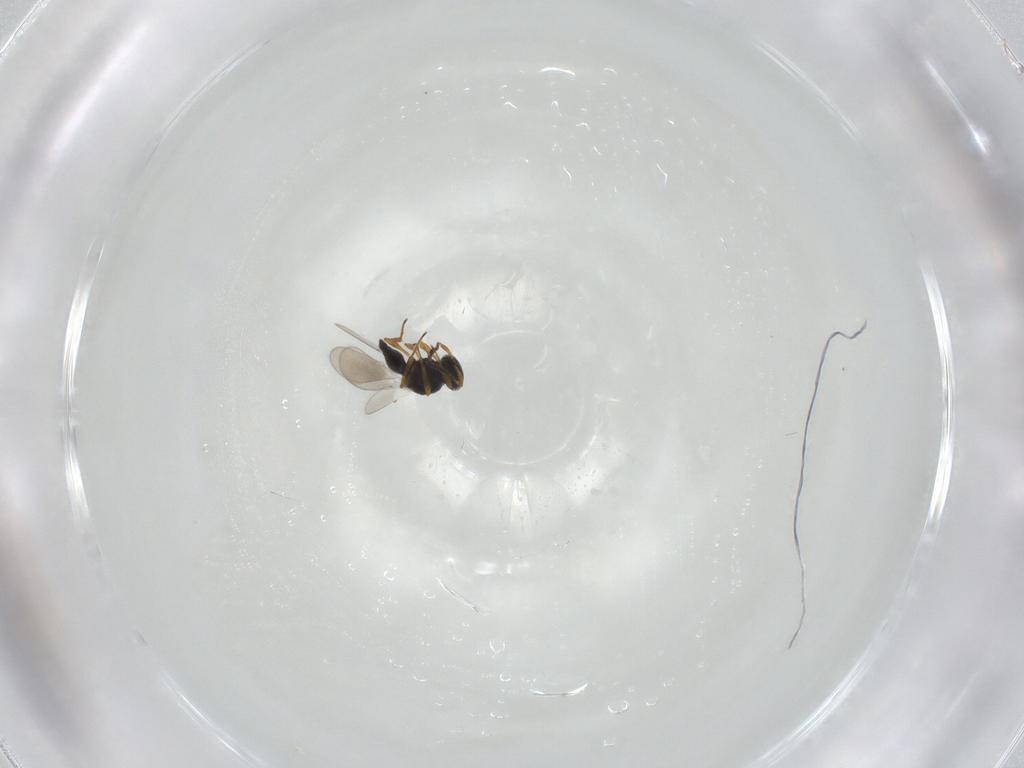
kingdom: Animalia
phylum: Arthropoda
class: Insecta
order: Hymenoptera
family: Platygastridae
